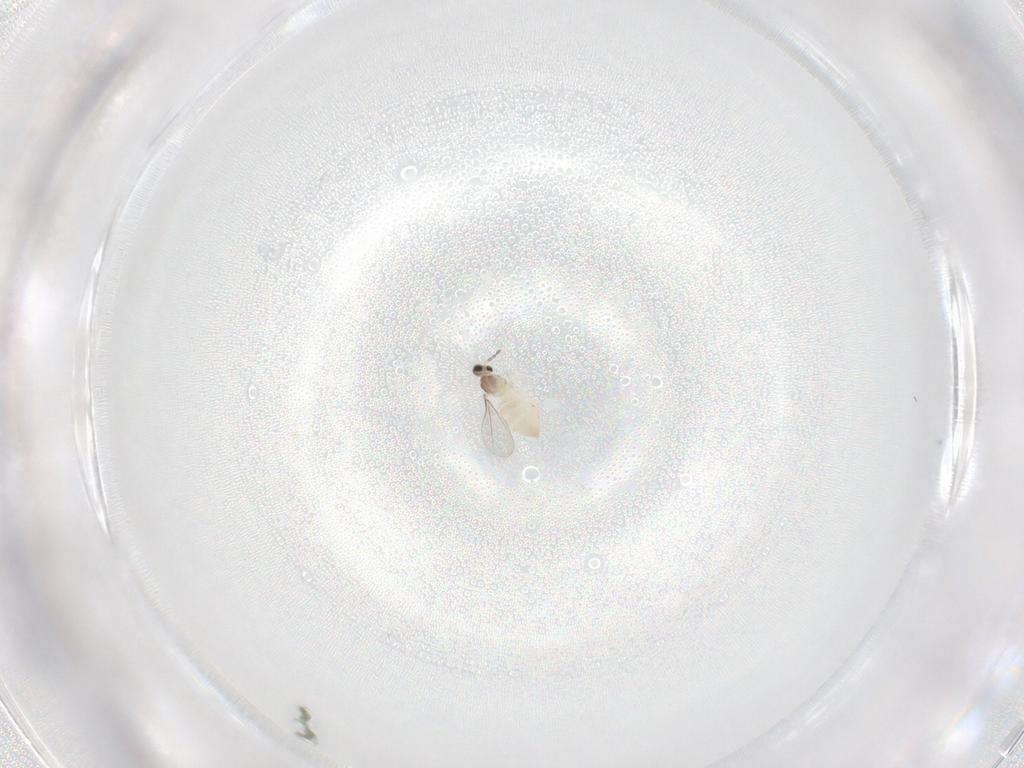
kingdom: Animalia
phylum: Arthropoda
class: Insecta
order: Diptera
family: Cecidomyiidae
